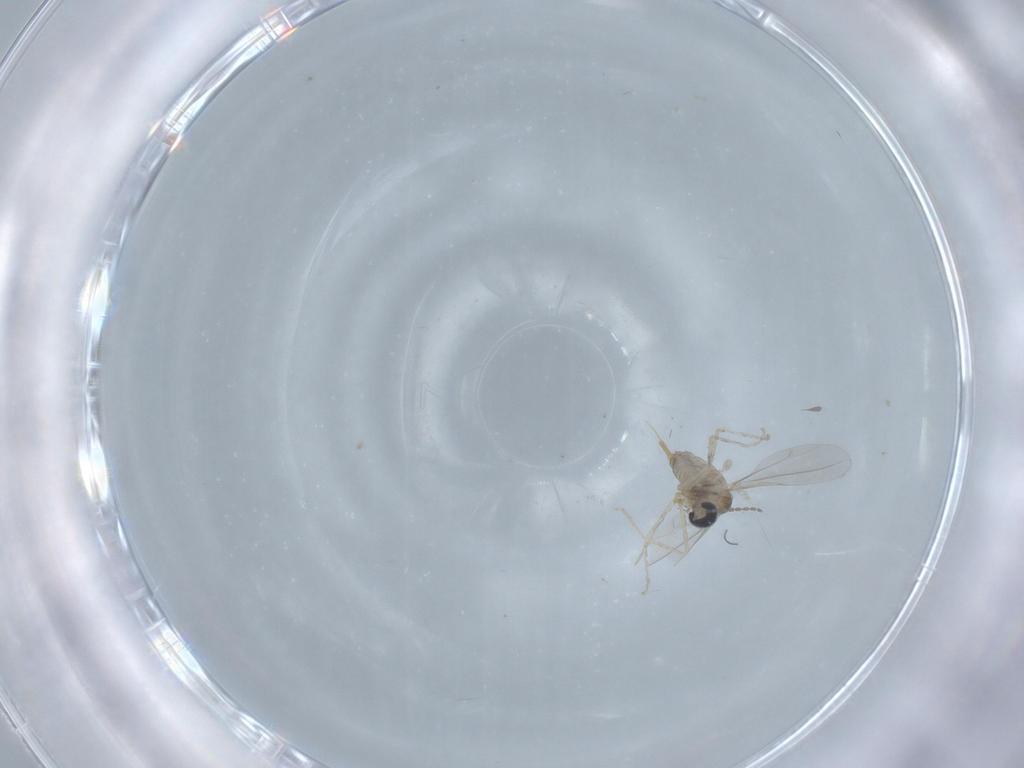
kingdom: Animalia
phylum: Arthropoda
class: Insecta
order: Diptera
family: Cecidomyiidae
